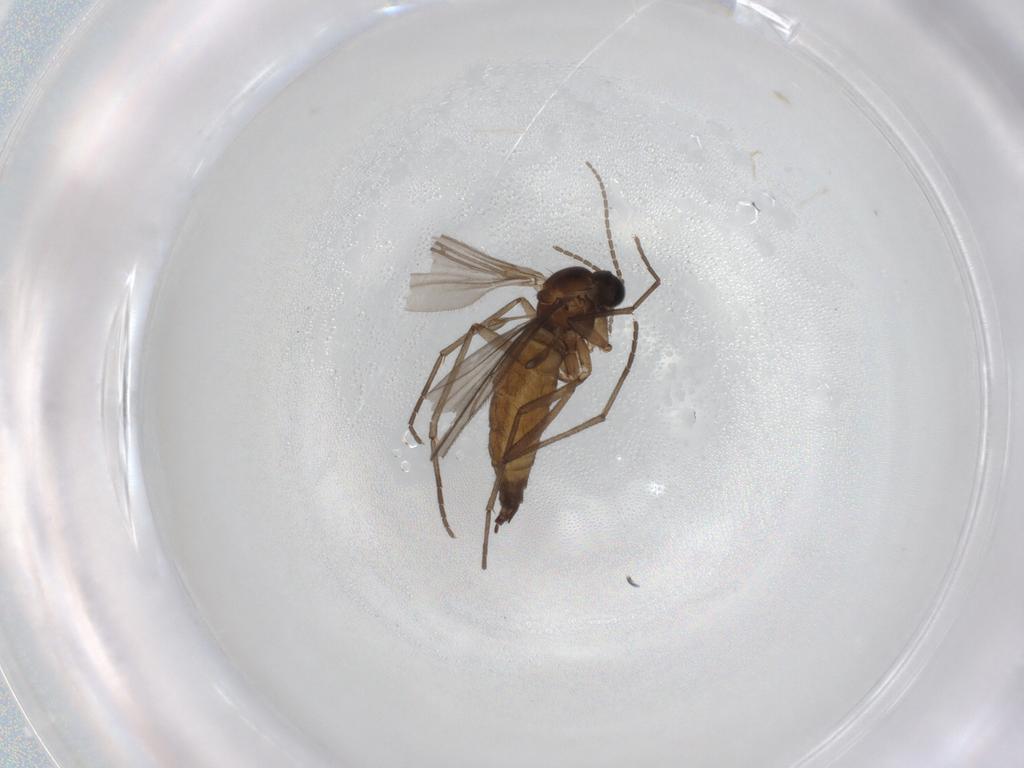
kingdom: Animalia
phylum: Arthropoda
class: Insecta
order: Diptera
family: Sciaridae
